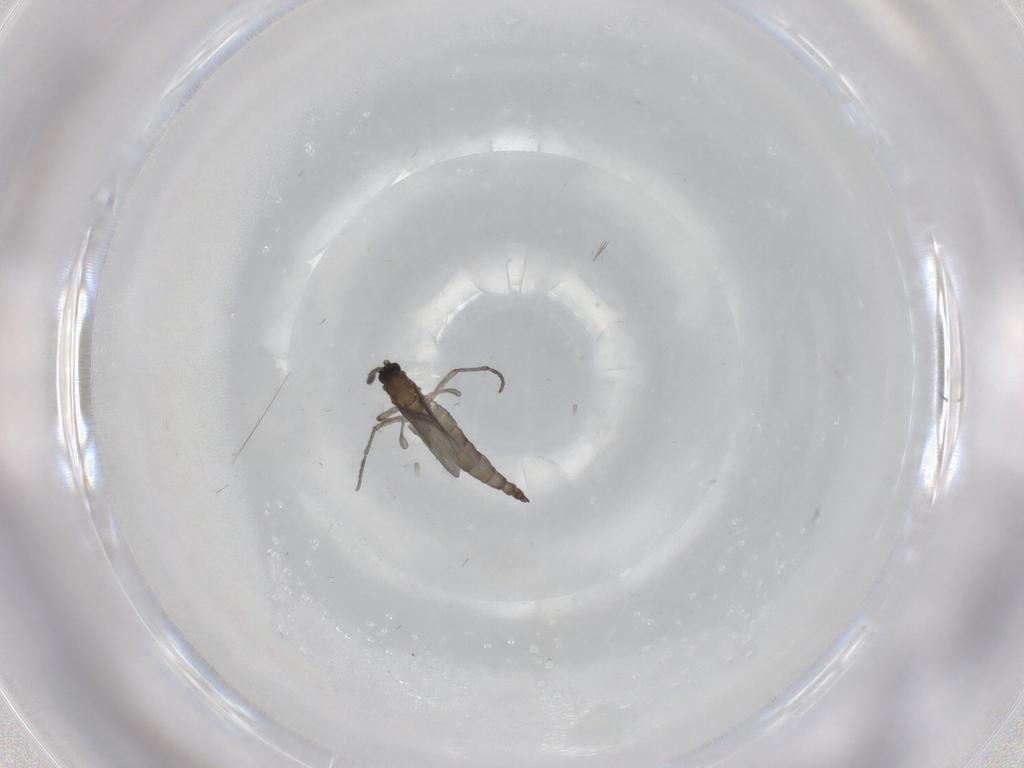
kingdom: Animalia
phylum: Arthropoda
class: Insecta
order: Diptera
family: Sciaridae
